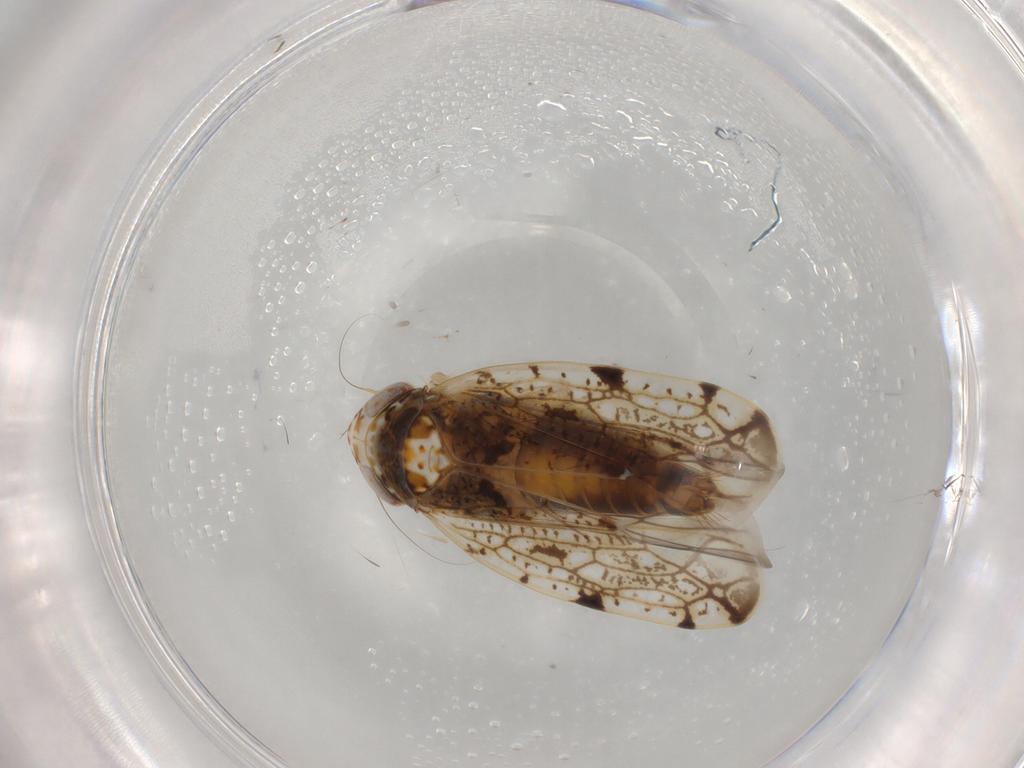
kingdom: Animalia
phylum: Arthropoda
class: Insecta
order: Hemiptera
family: Cicadellidae
